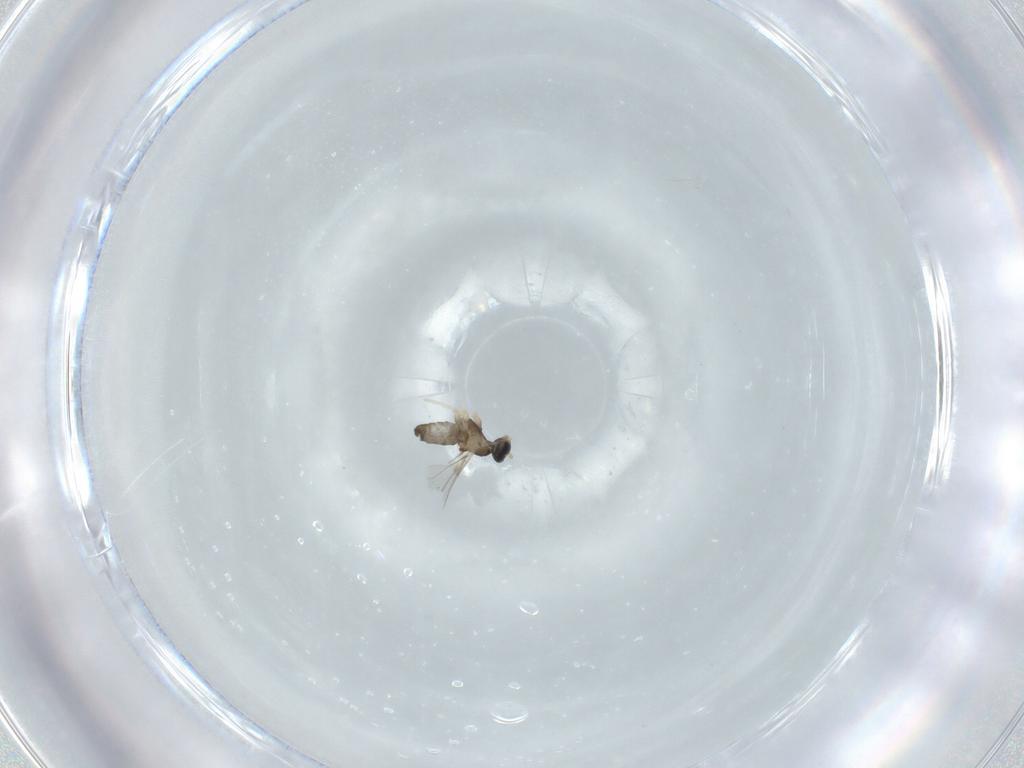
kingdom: Animalia
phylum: Arthropoda
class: Insecta
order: Diptera
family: Cecidomyiidae
